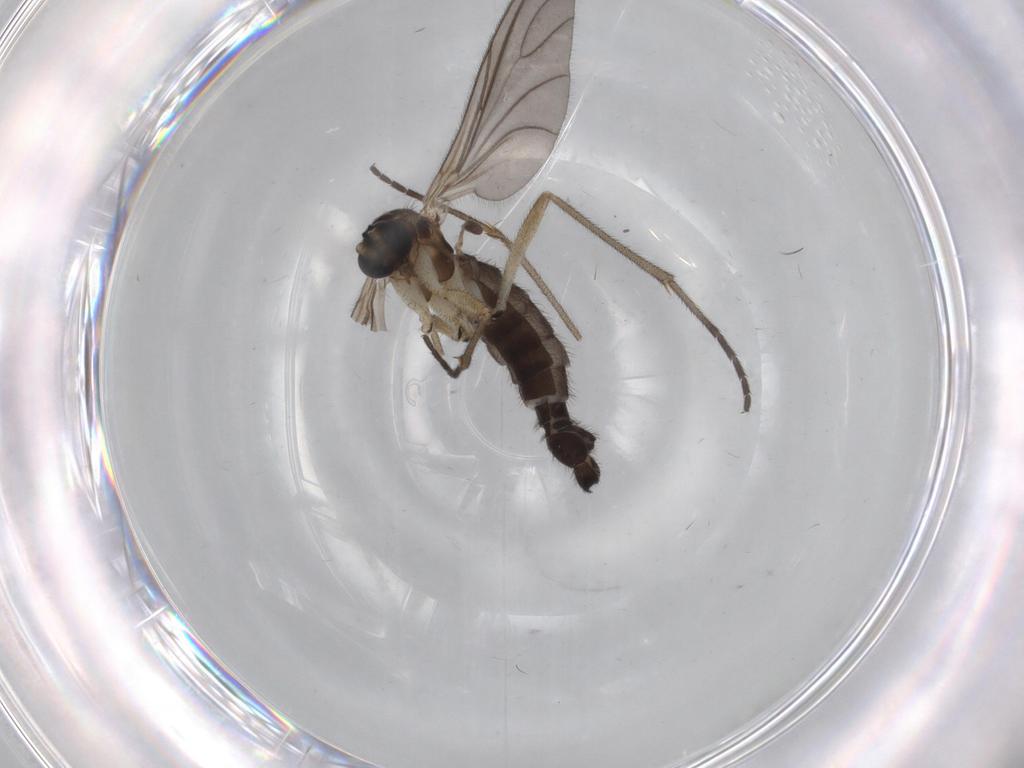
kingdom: Animalia
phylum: Arthropoda
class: Insecta
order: Diptera
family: Sciaridae
